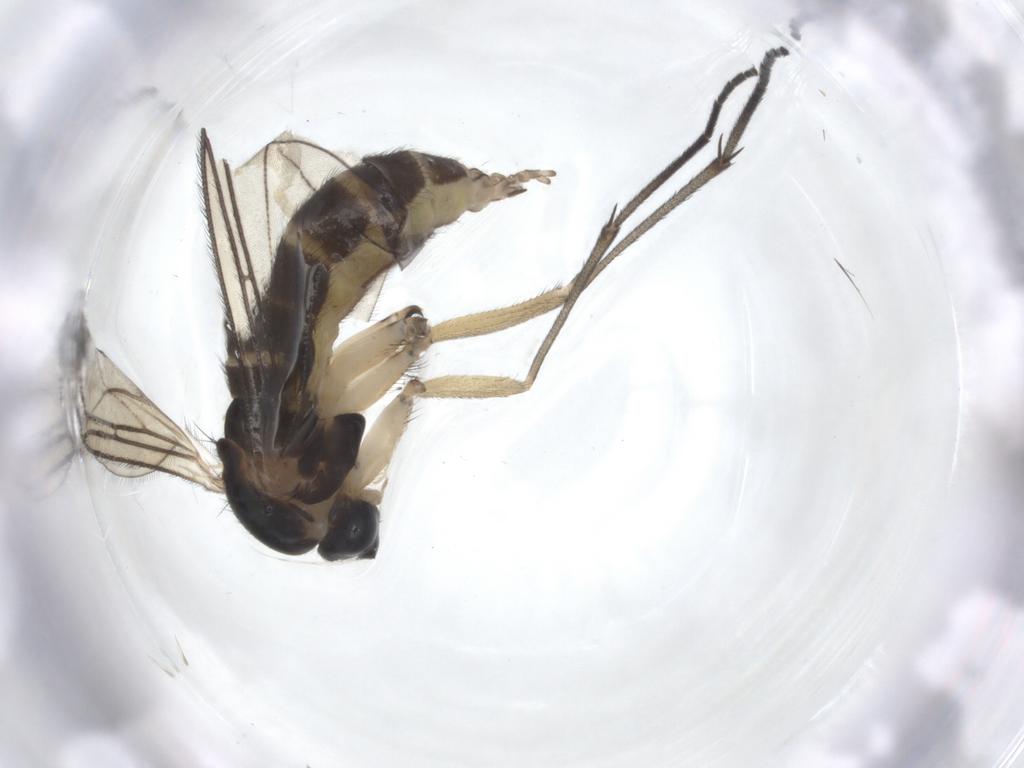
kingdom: Animalia
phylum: Arthropoda
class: Insecta
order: Diptera
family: Sciaridae
